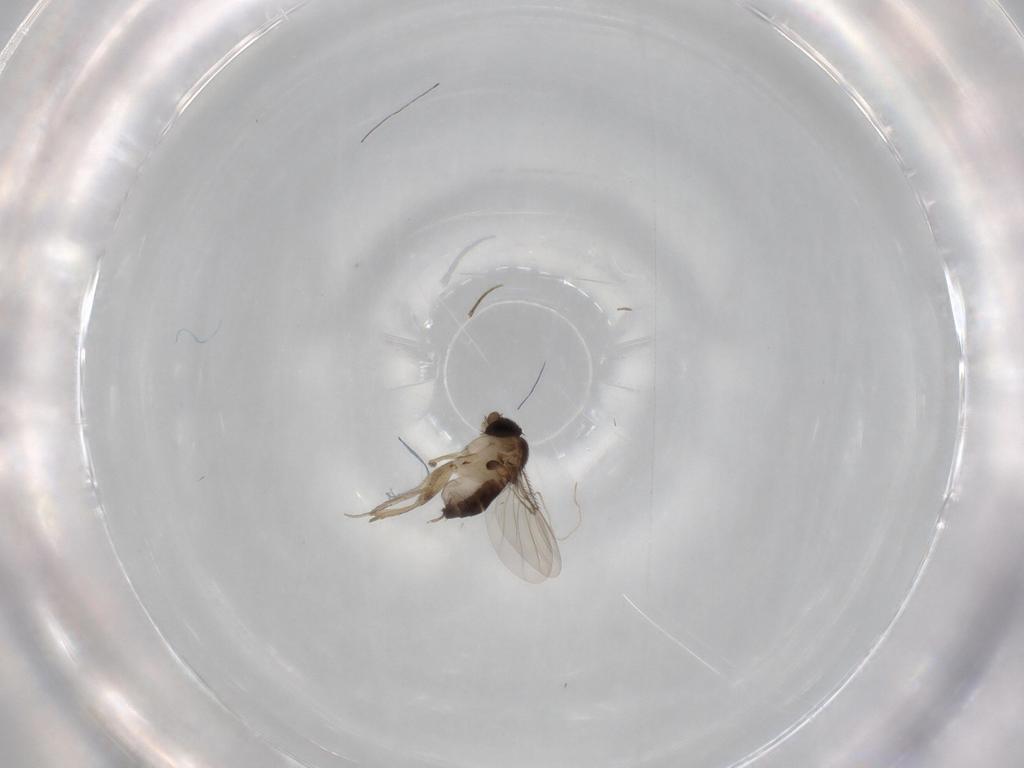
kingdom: Animalia
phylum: Arthropoda
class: Insecta
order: Diptera
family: Phoridae
